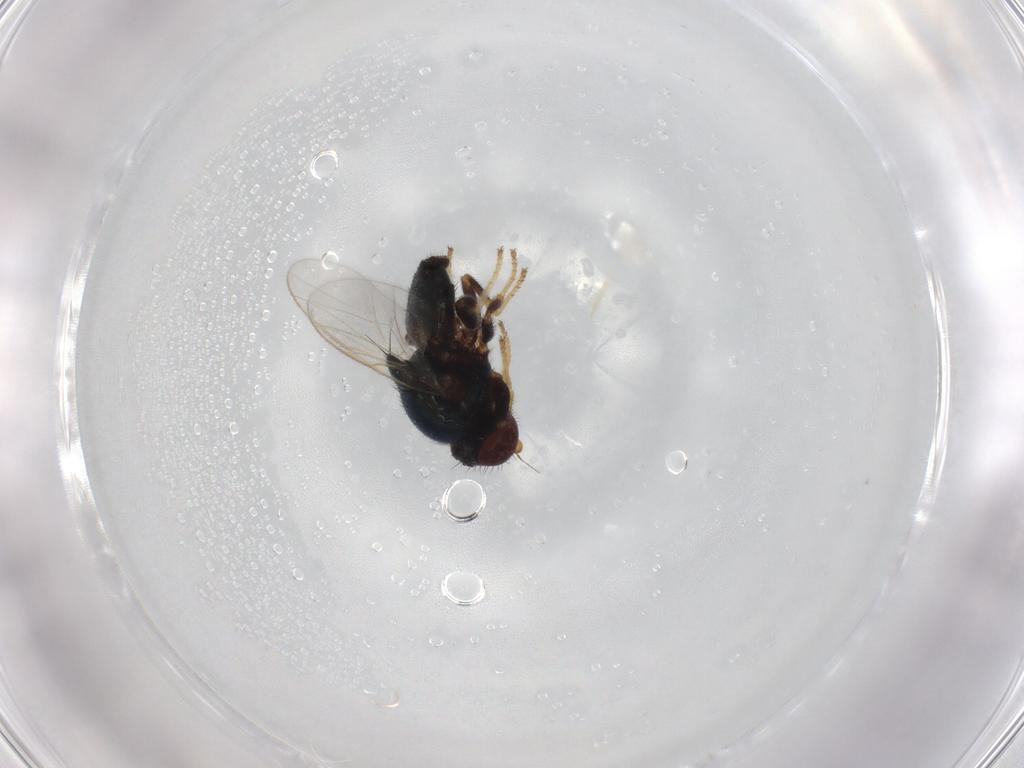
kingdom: Animalia
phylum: Arthropoda
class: Insecta
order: Diptera
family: Chloropidae
